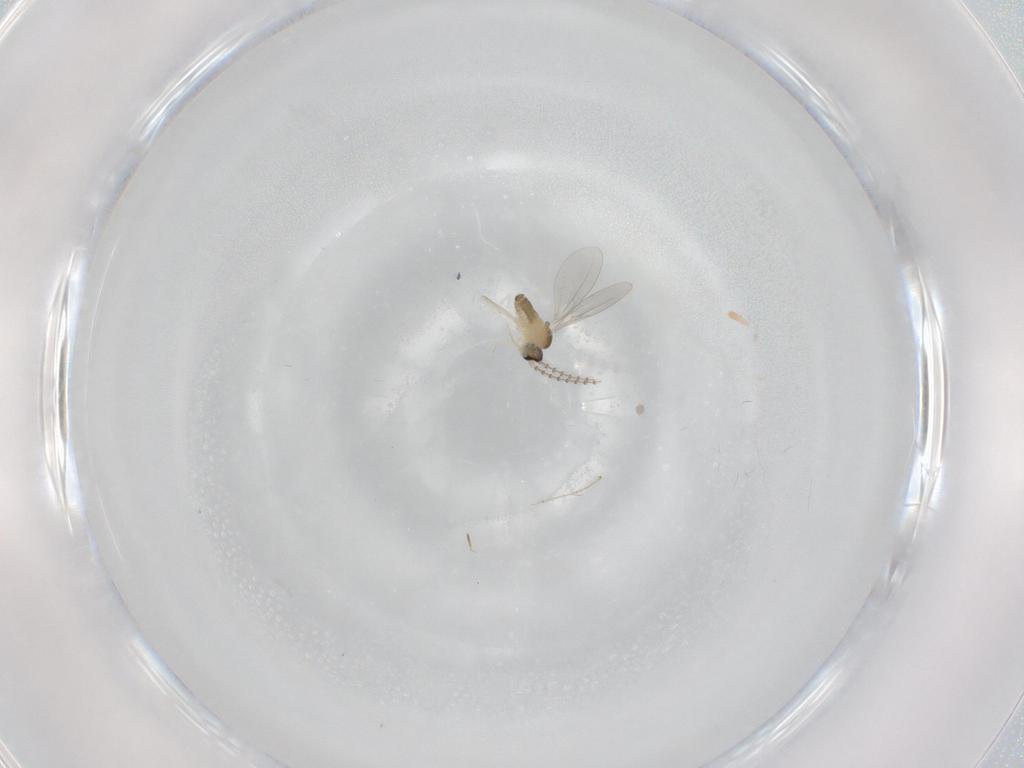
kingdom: Animalia
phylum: Arthropoda
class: Insecta
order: Diptera
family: Cecidomyiidae
